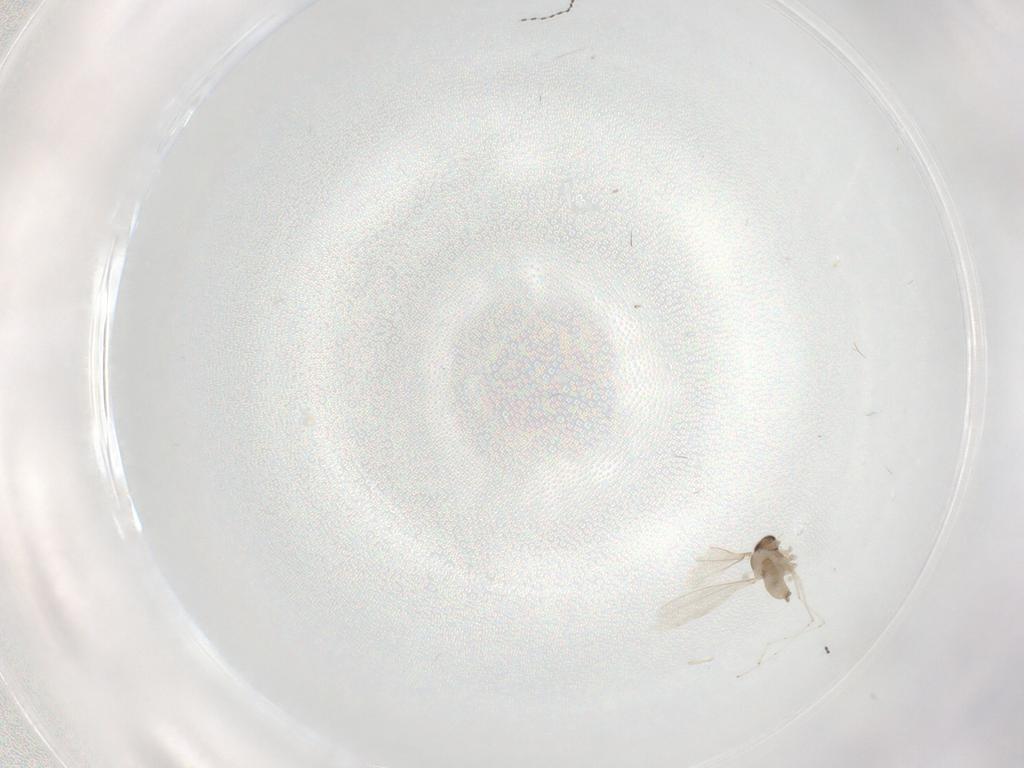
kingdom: Animalia
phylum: Arthropoda
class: Insecta
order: Diptera
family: Cecidomyiidae
